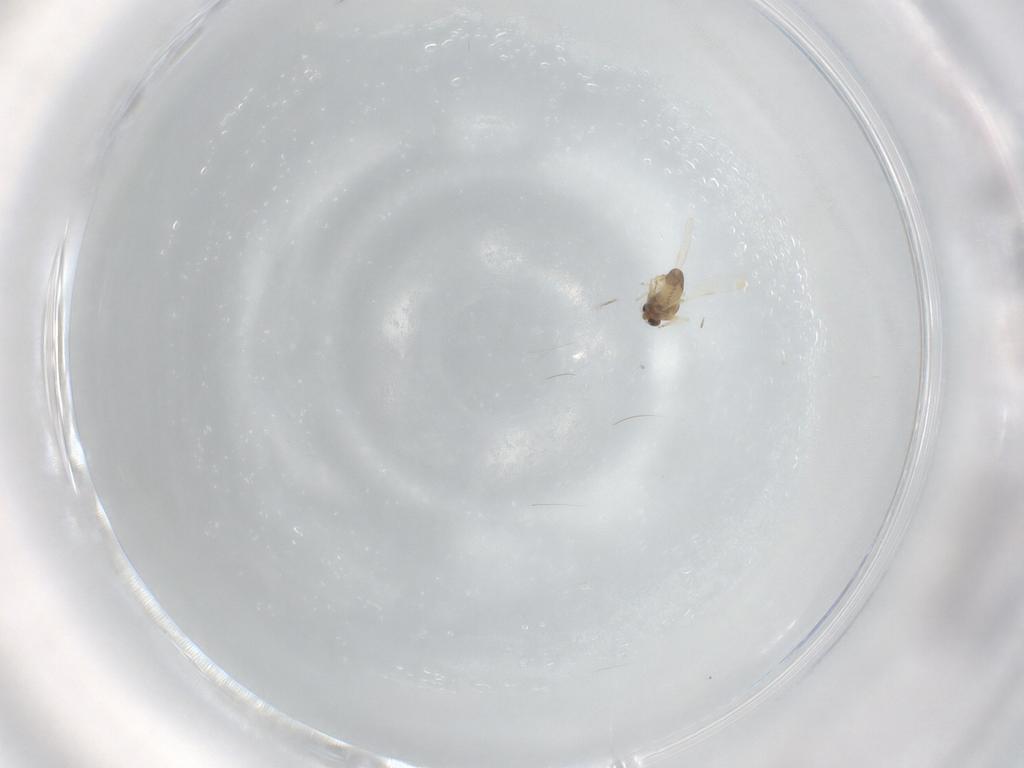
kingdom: Animalia
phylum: Arthropoda
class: Insecta
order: Diptera
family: Chironomidae
